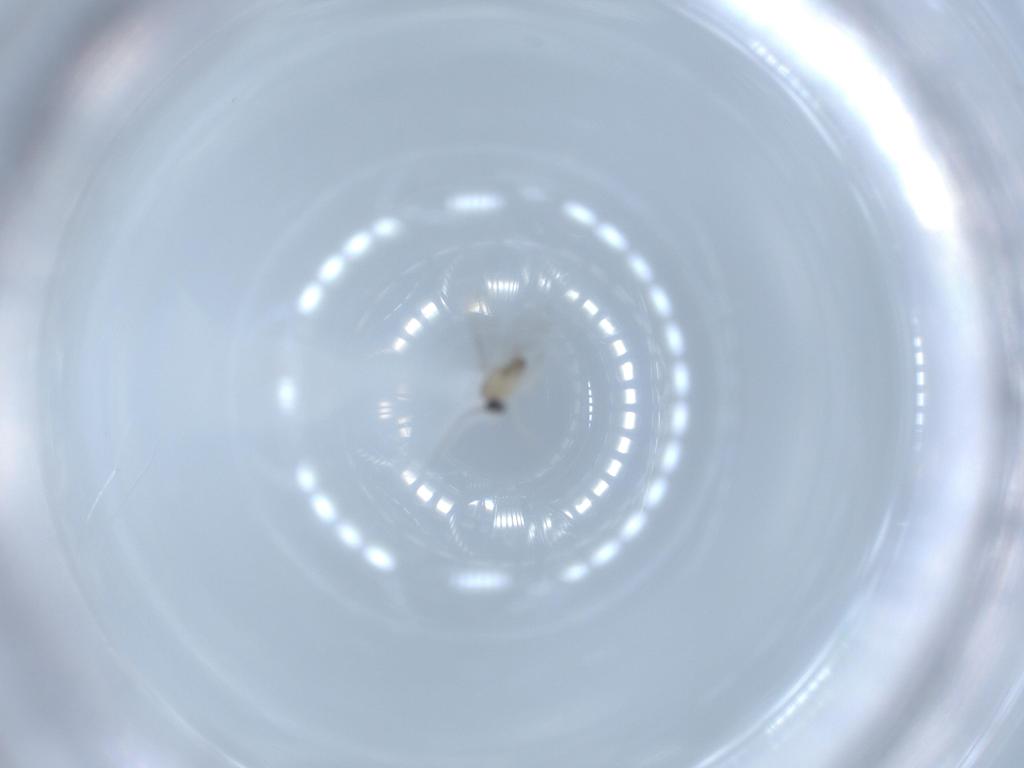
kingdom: Animalia
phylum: Arthropoda
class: Insecta
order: Diptera
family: Cecidomyiidae
